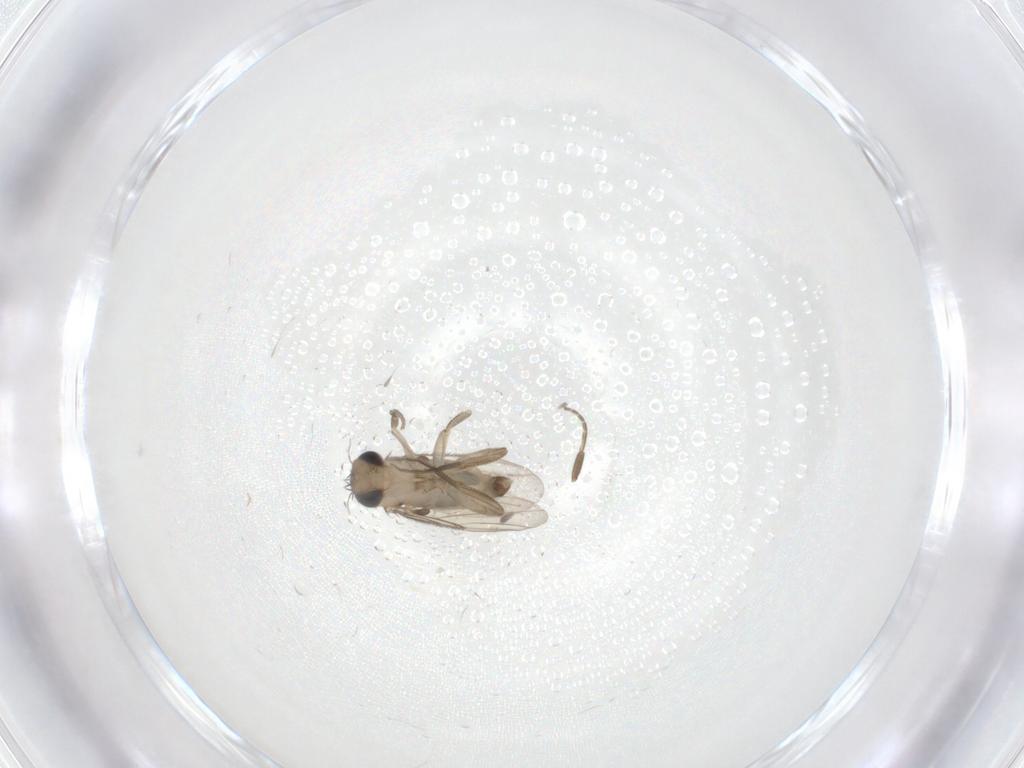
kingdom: Animalia
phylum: Arthropoda
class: Insecta
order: Diptera
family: Phoridae
